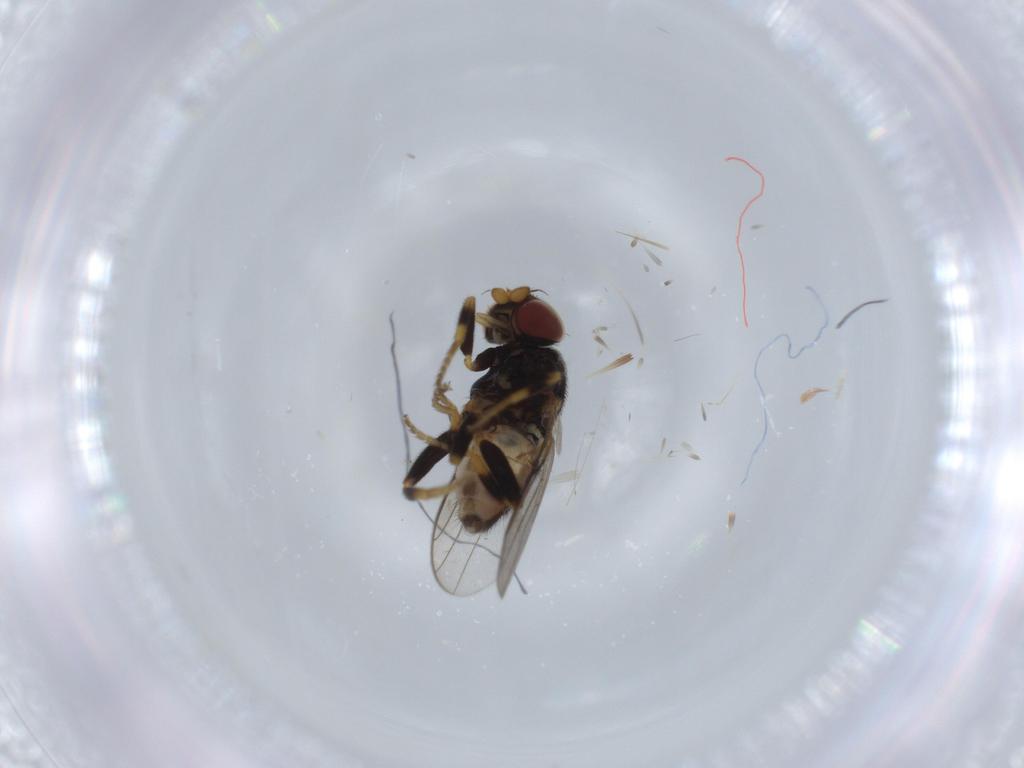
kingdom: Animalia
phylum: Arthropoda
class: Insecta
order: Diptera
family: Chloropidae
